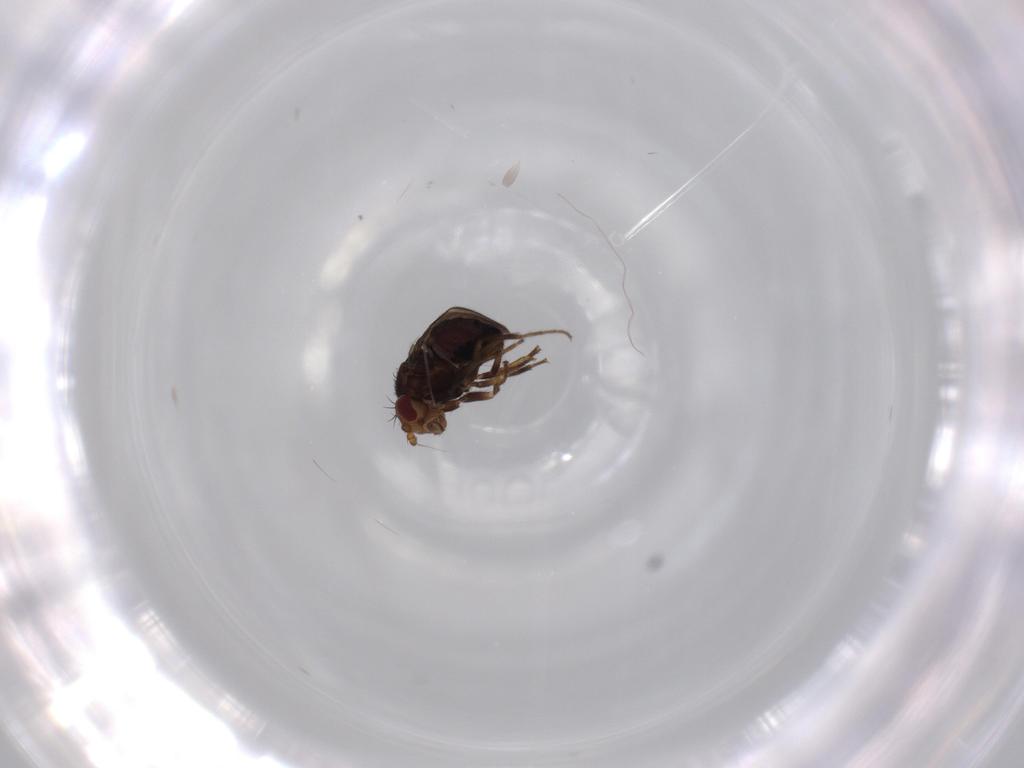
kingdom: Animalia
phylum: Arthropoda
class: Insecta
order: Diptera
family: Sphaeroceridae
